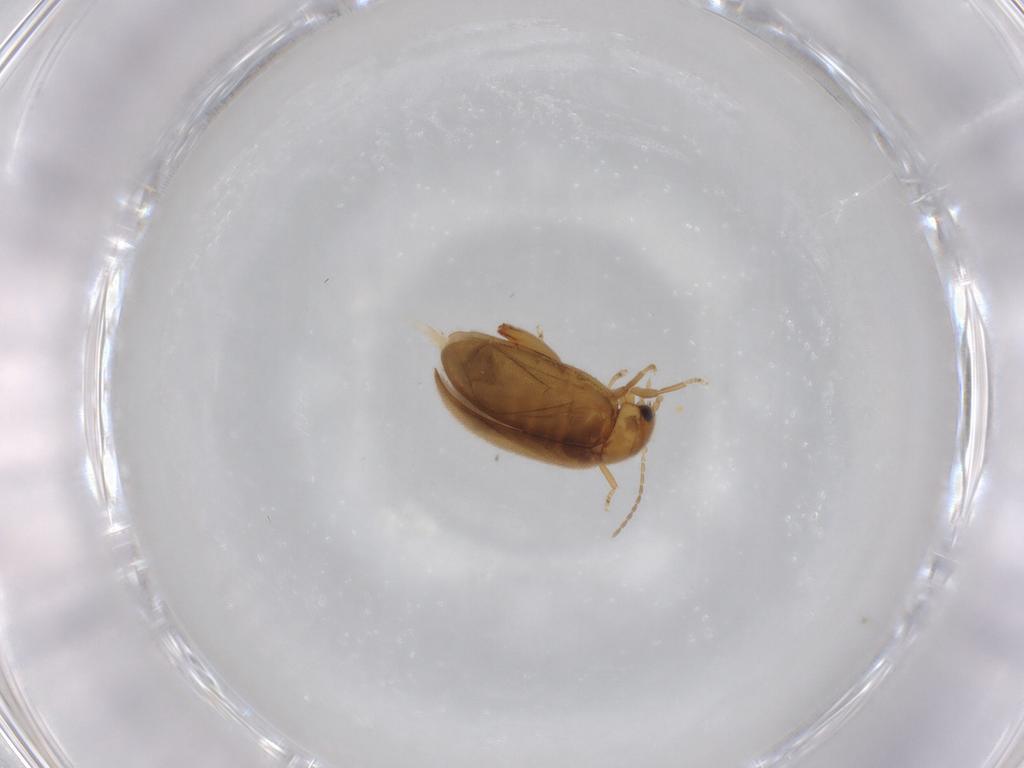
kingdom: Animalia
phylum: Arthropoda
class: Insecta
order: Coleoptera
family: Scirtidae
